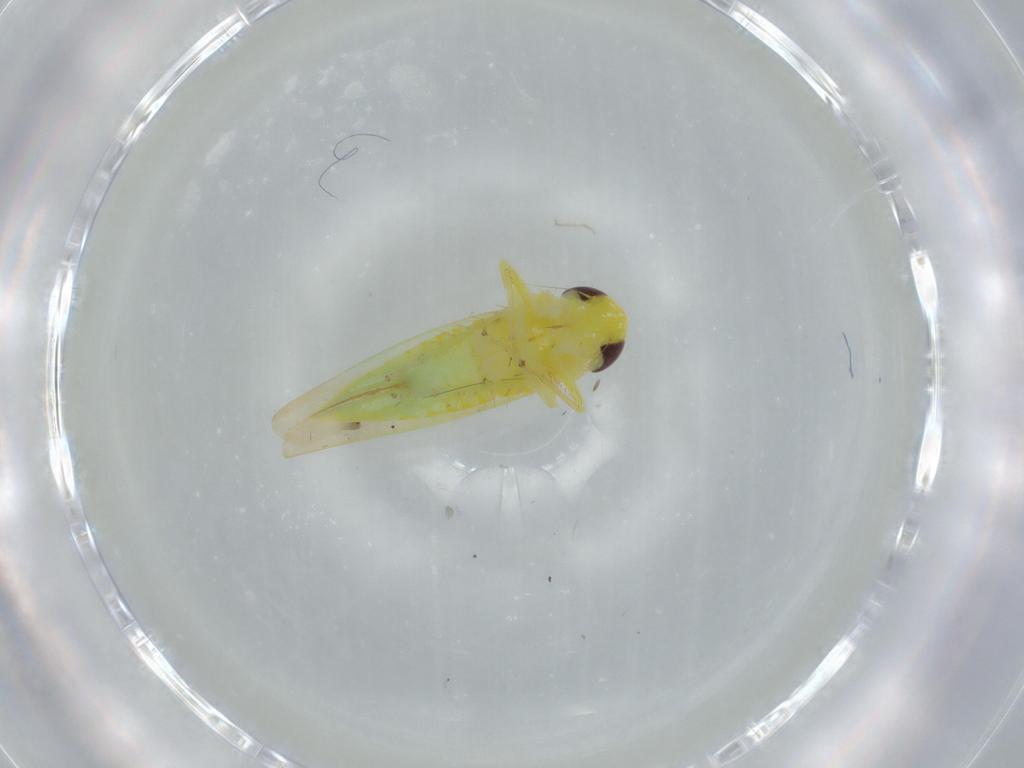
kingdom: Animalia
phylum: Arthropoda
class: Insecta
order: Hemiptera
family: Cicadellidae
